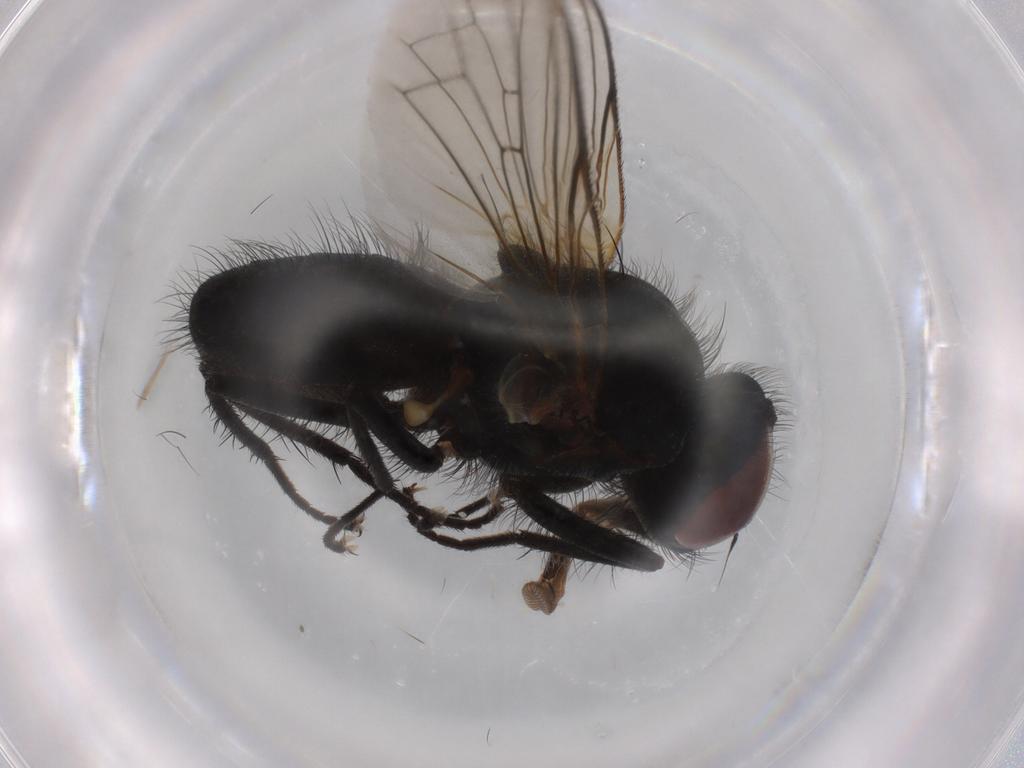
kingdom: Animalia
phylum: Arthropoda
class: Insecta
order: Diptera
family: Anthomyiidae
